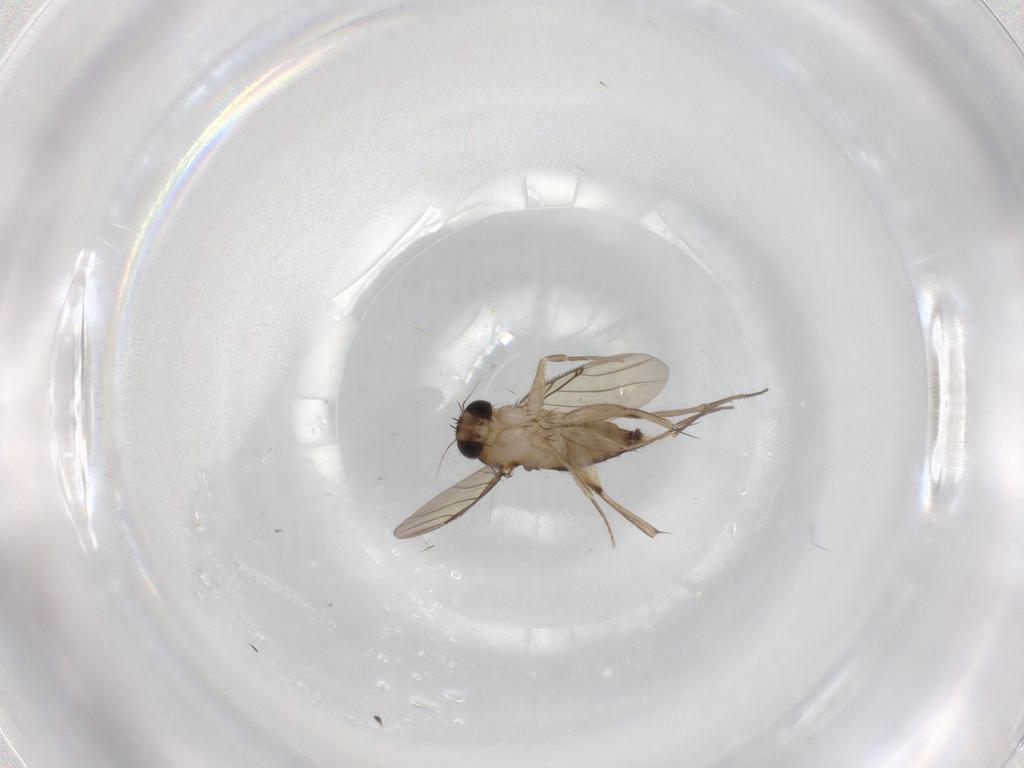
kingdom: Animalia
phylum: Arthropoda
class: Insecta
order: Diptera
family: Phoridae
